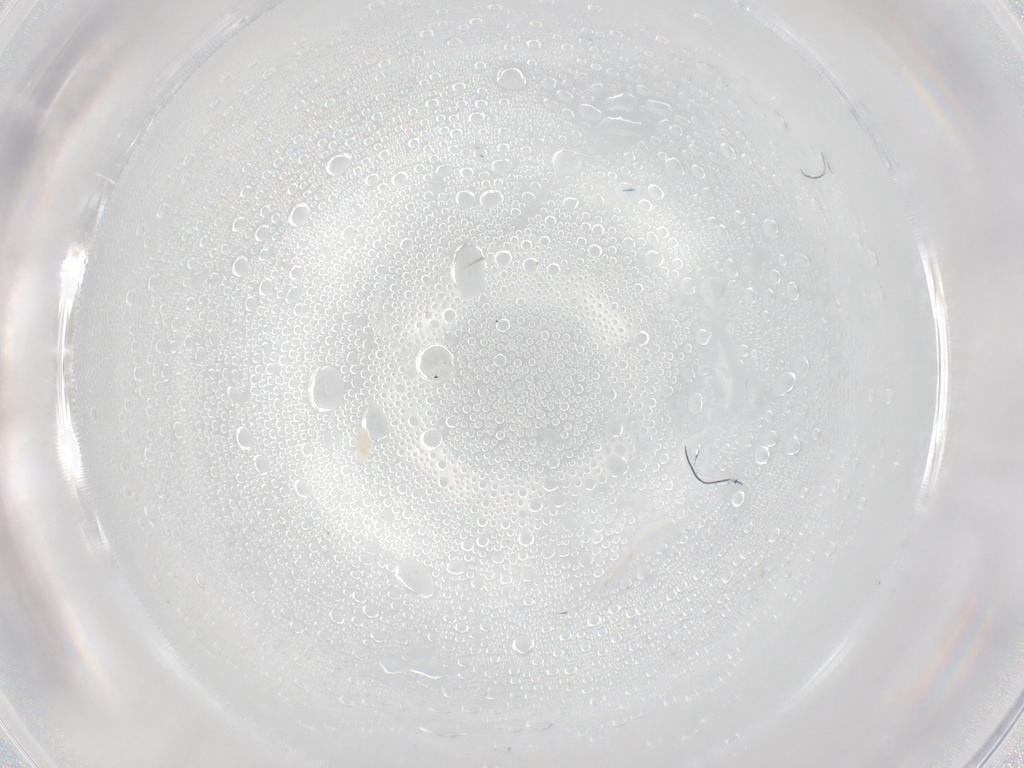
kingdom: Animalia
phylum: Arthropoda
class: Arachnida
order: Trombidiformes
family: Eupodidae
